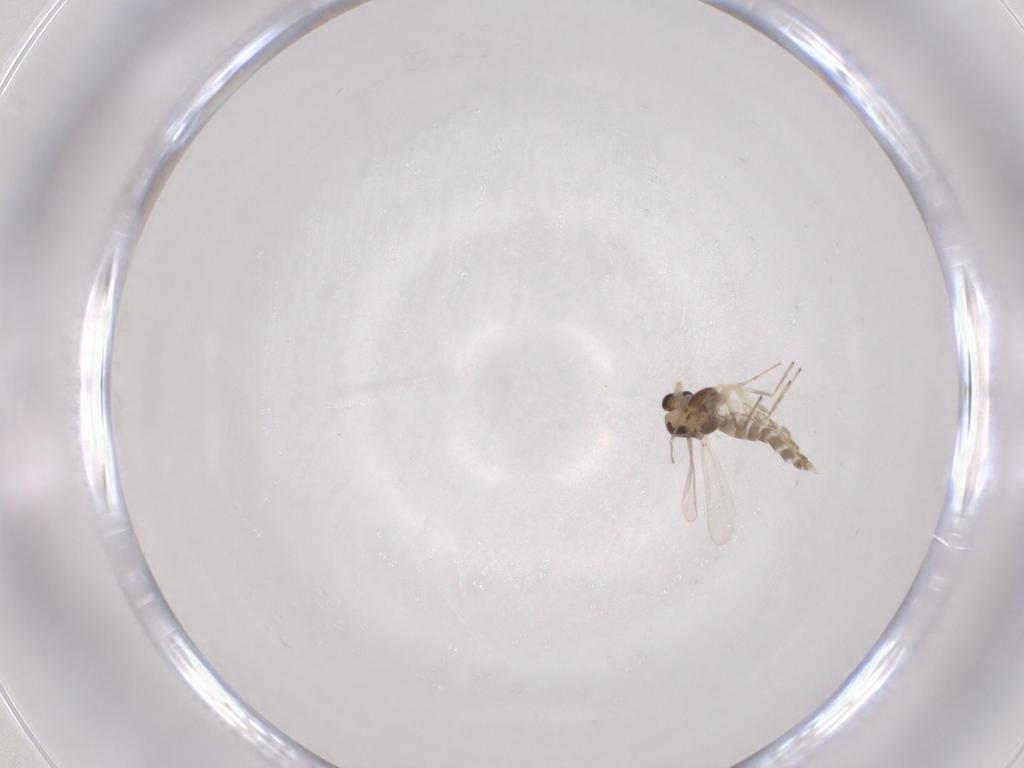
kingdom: Animalia
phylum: Arthropoda
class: Insecta
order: Diptera
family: Chironomidae
